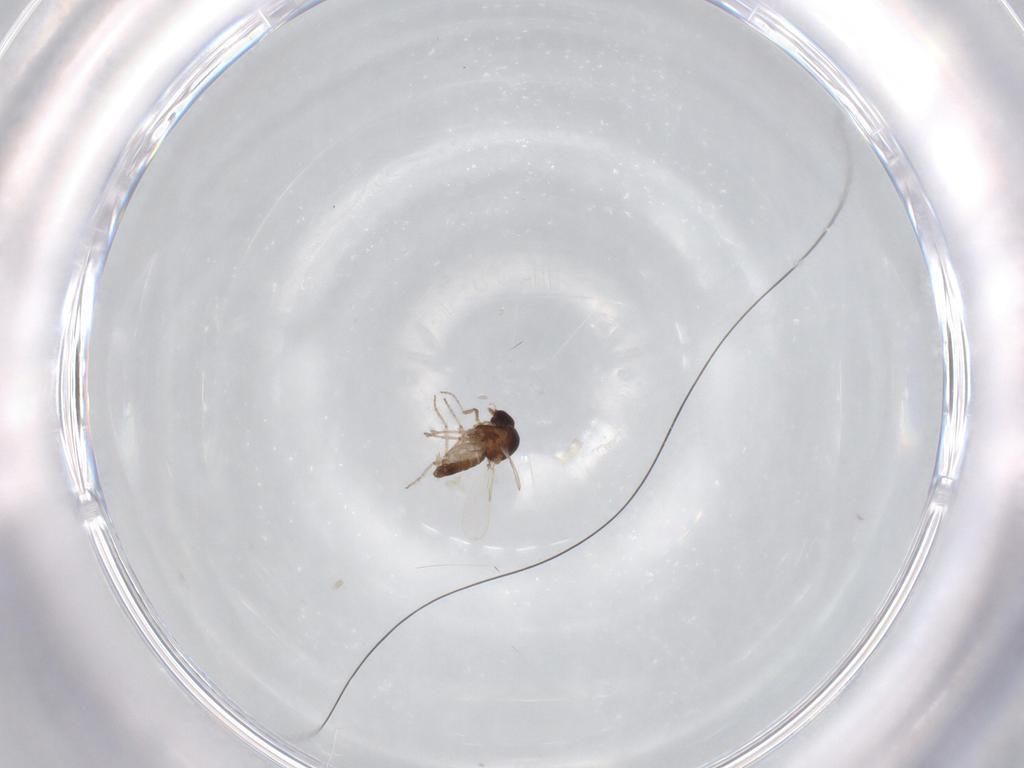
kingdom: Animalia
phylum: Arthropoda
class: Insecta
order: Diptera
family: Ceratopogonidae
